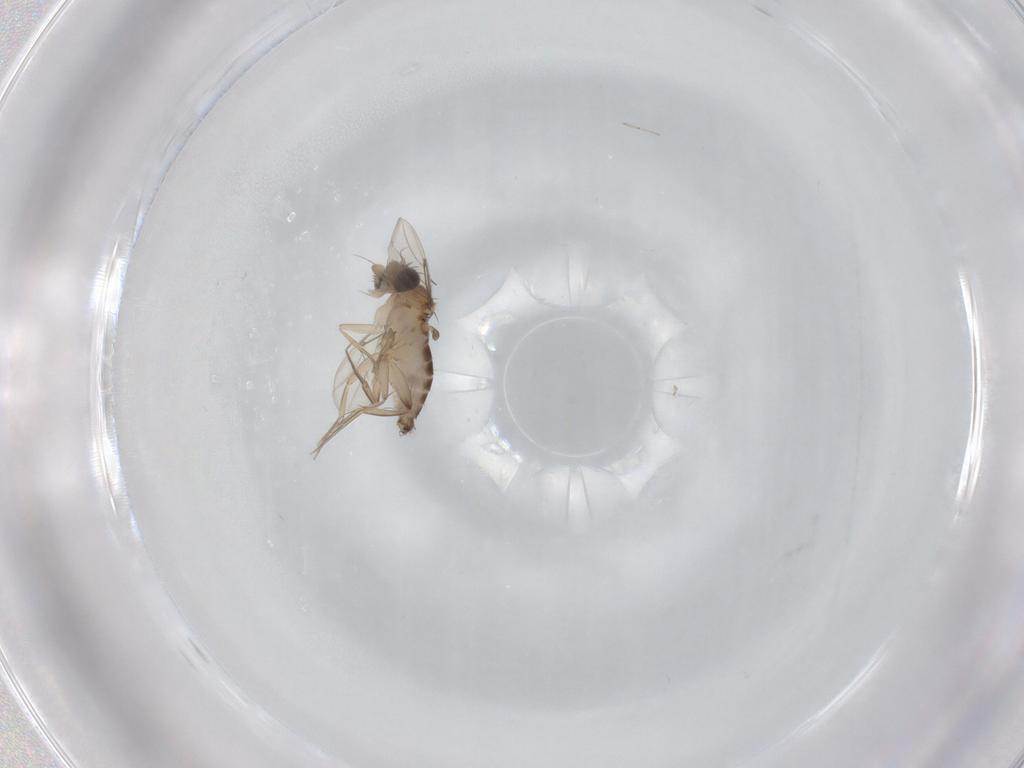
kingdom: Animalia
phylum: Arthropoda
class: Insecta
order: Diptera
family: Phoridae
